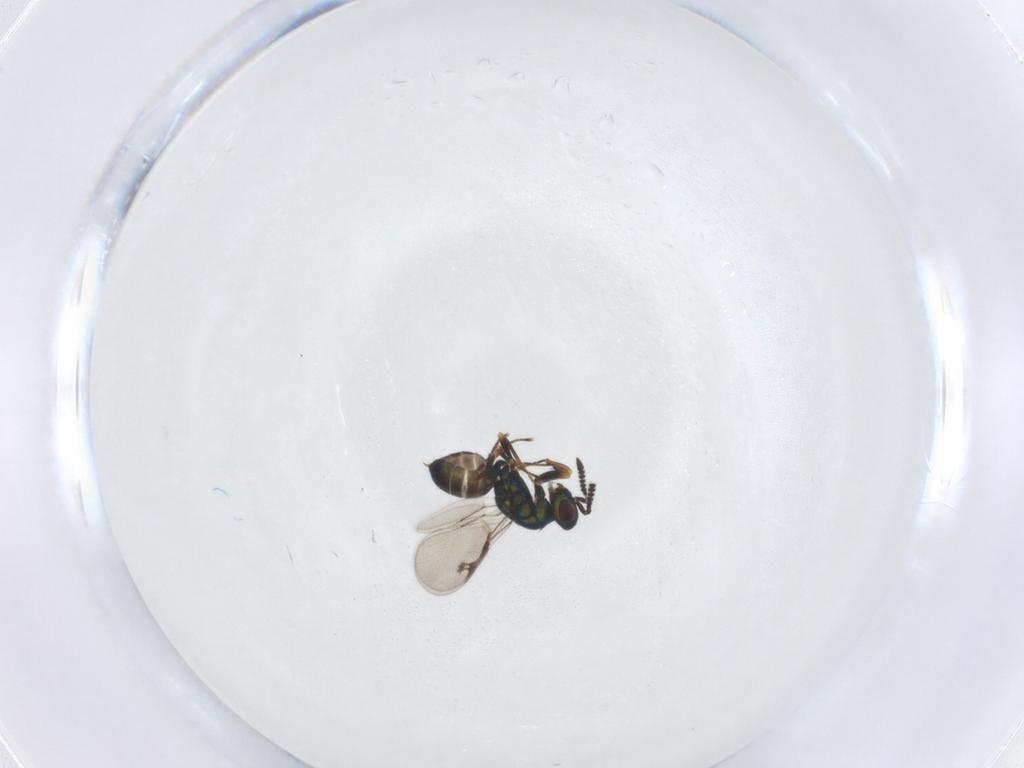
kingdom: Animalia
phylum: Arthropoda
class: Insecta
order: Hymenoptera
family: Pteromalidae
